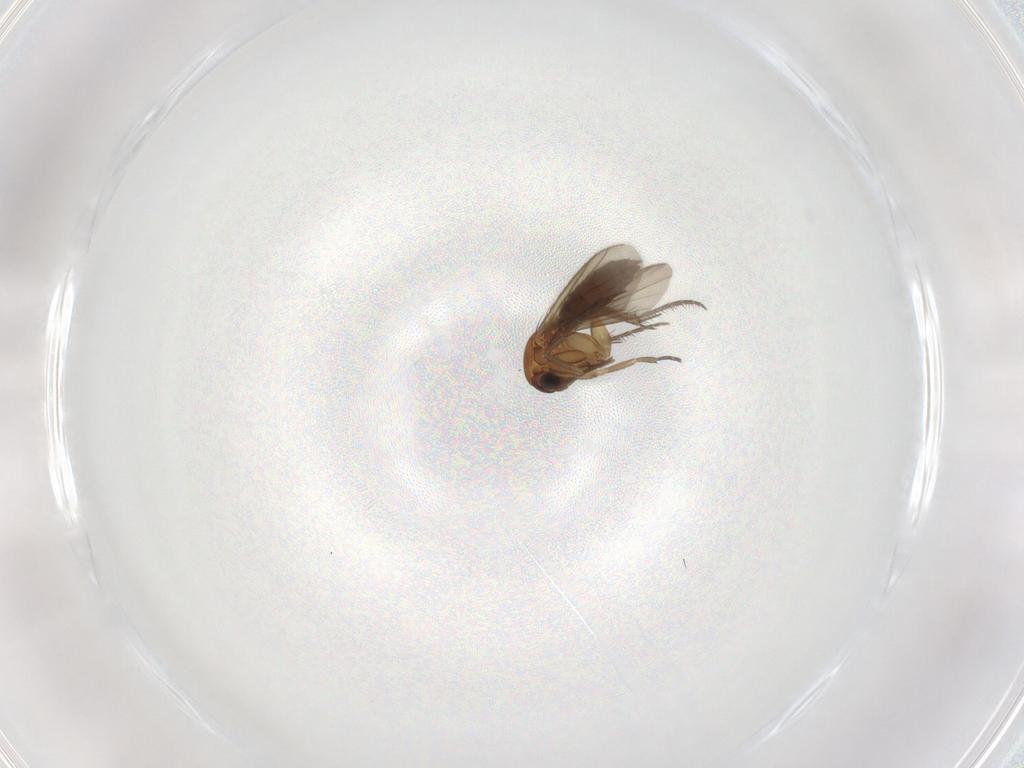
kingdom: Animalia
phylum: Arthropoda
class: Insecta
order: Diptera
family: Mycetophilidae
